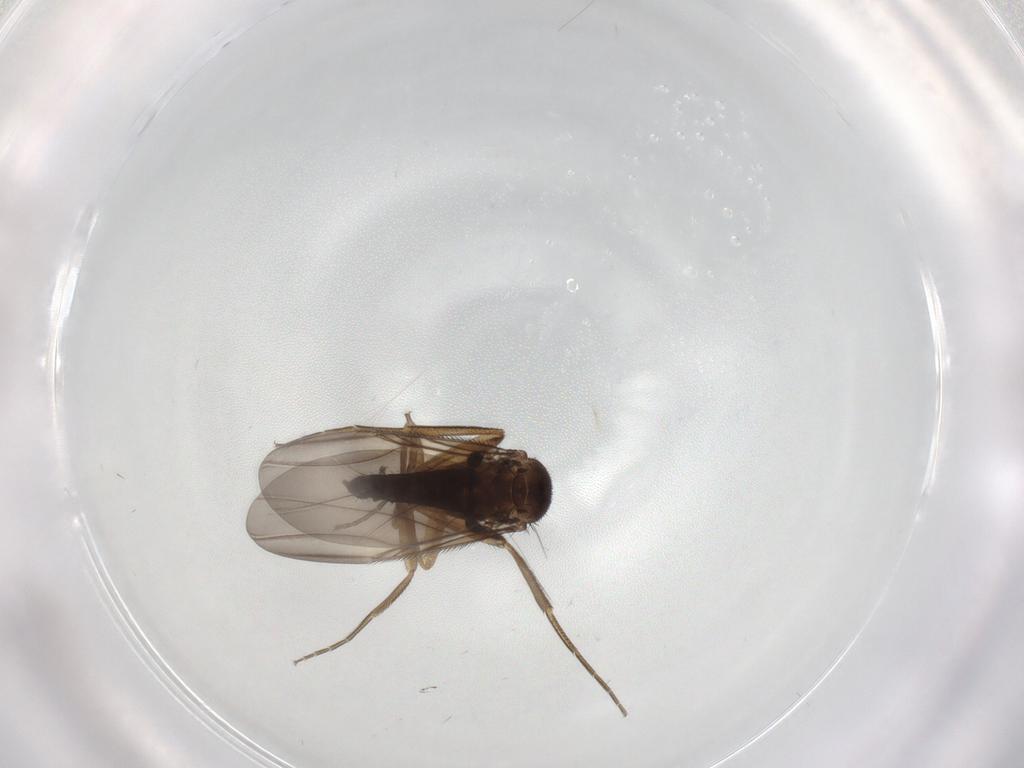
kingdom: Animalia
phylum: Arthropoda
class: Insecta
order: Diptera
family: Phoridae
